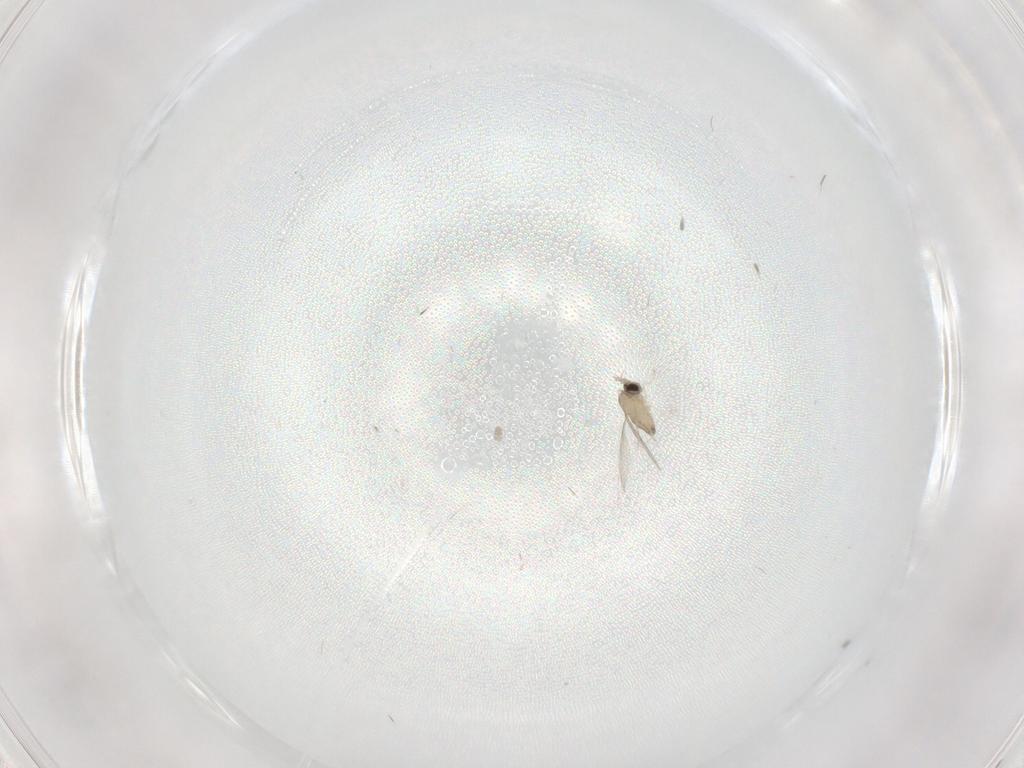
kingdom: Animalia
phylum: Arthropoda
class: Insecta
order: Diptera
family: Cecidomyiidae
